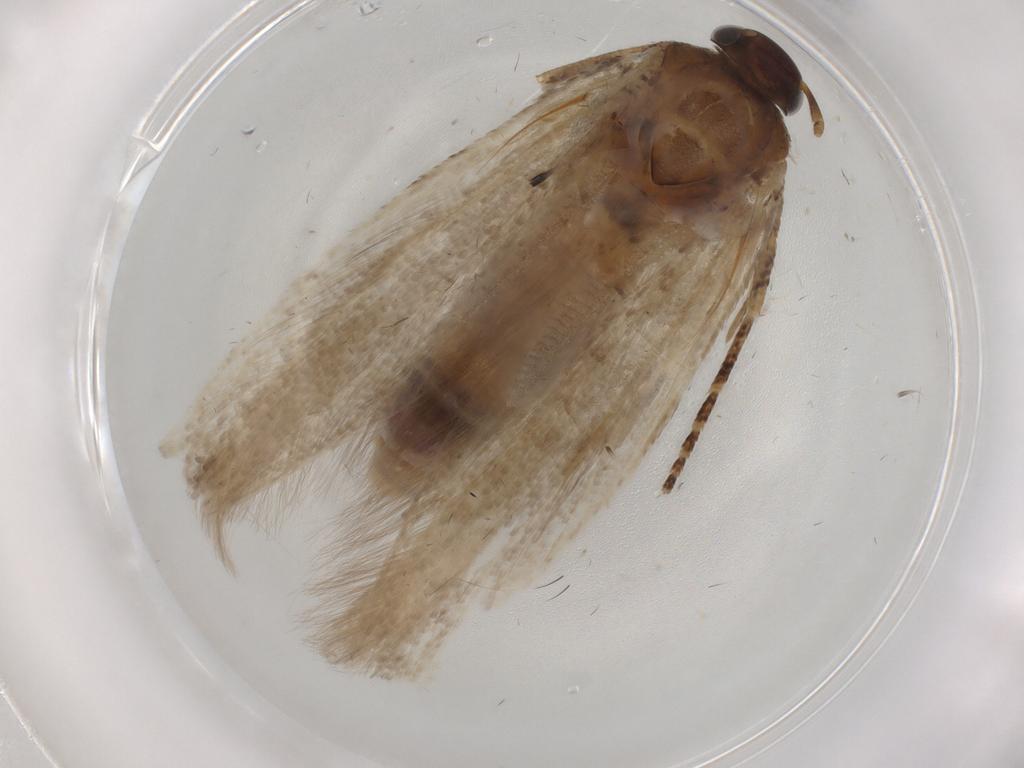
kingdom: Animalia
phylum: Arthropoda
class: Insecta
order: Lepidoptera
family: Gelechiidae
